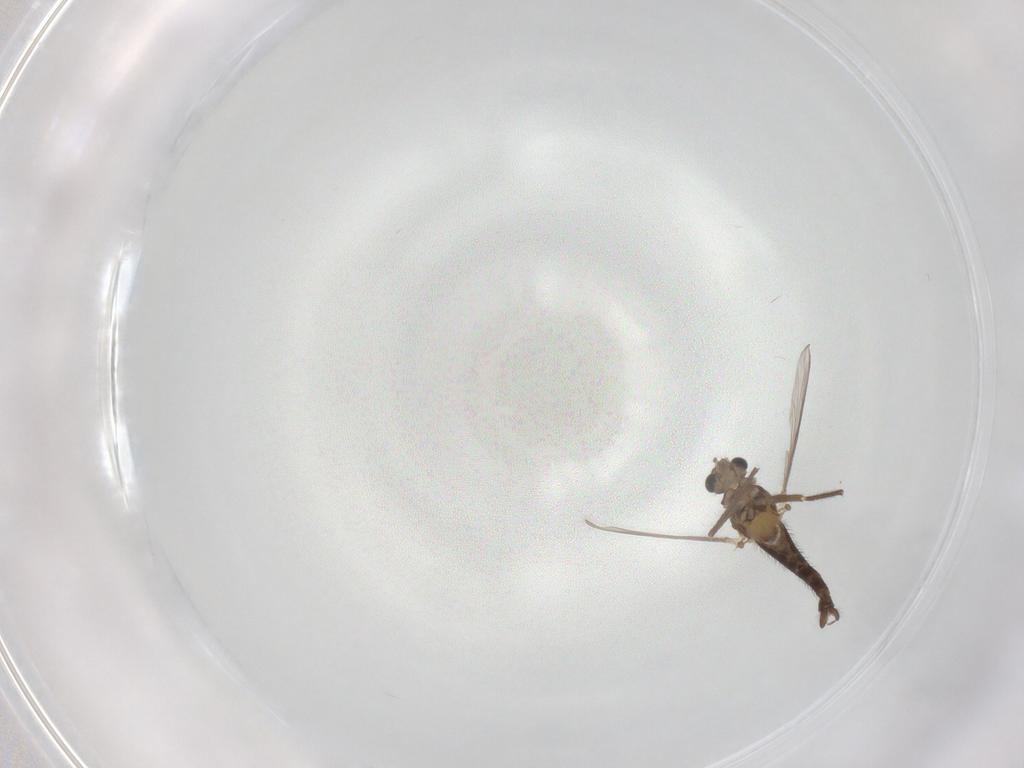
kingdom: Animalia
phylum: Arthropoda
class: Insecta
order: Diptera
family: Chironomidae
